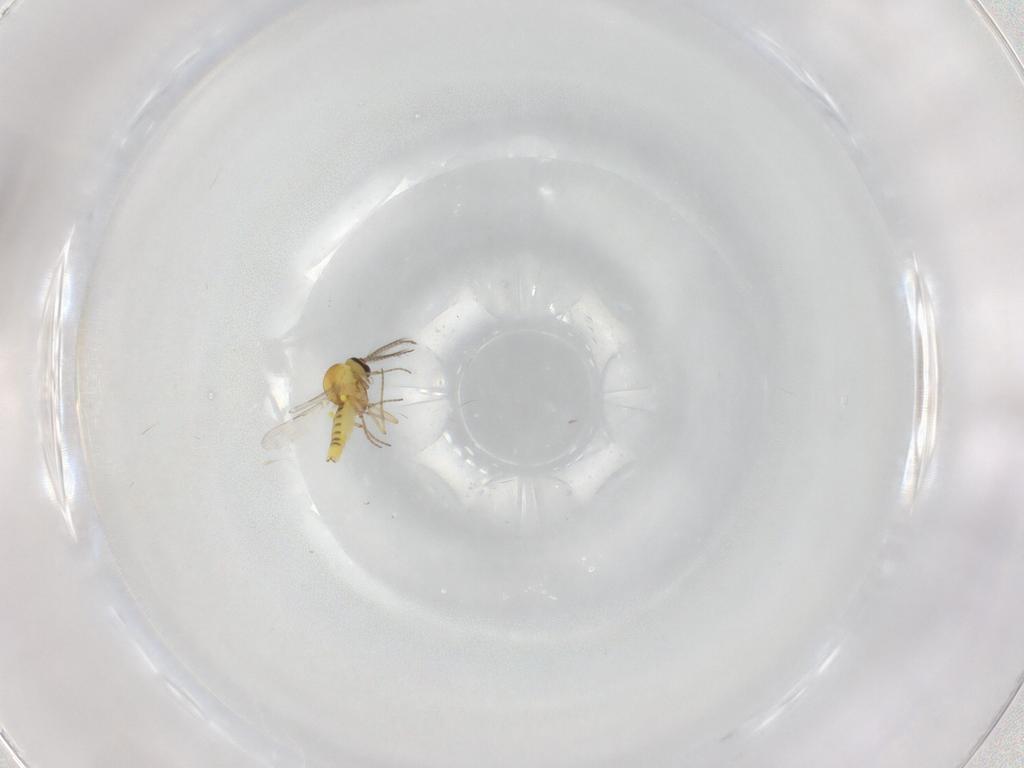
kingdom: Animalia
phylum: Arthropoda
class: Insecta
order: Diptera
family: Ceratopogonidae
